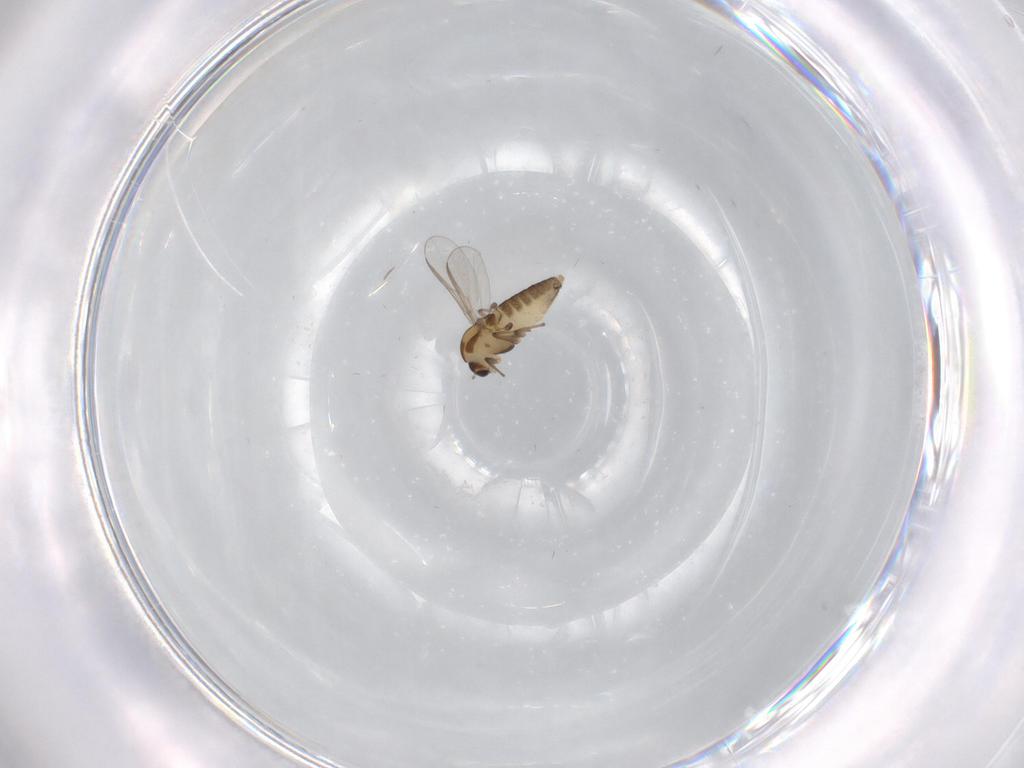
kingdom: Animalia
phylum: Arthropoda
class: Insecta
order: Diptera
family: Chironomidae
